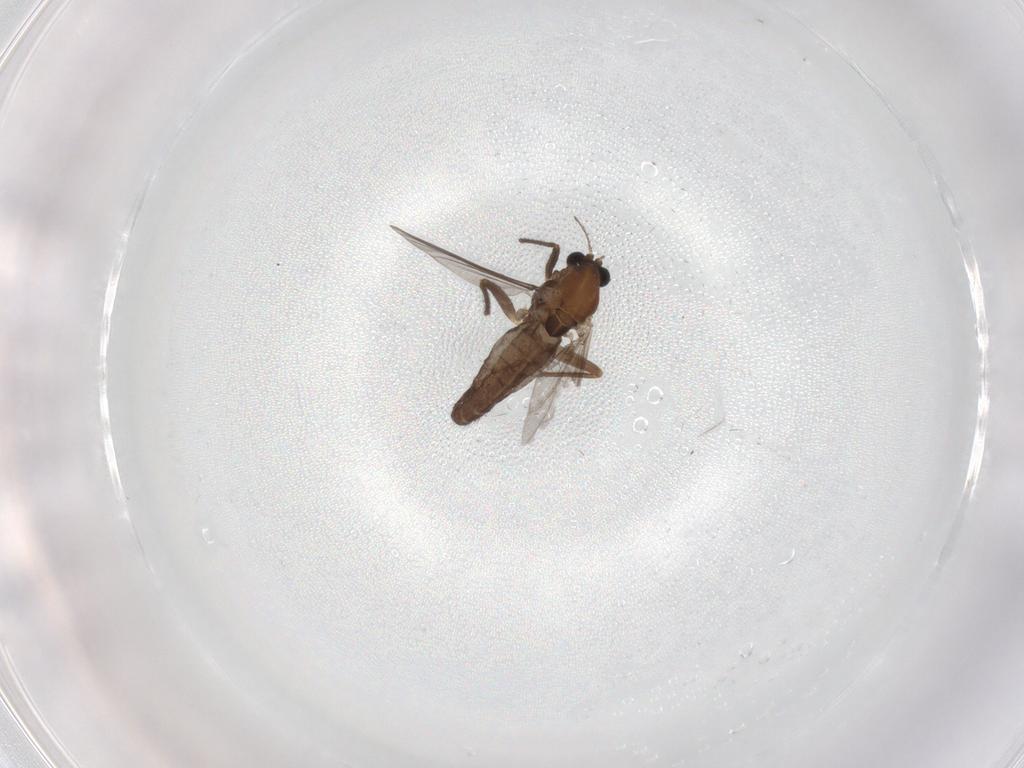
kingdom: Animalia
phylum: Arthropoda
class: Insecta
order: Diptera
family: Chironomidae
